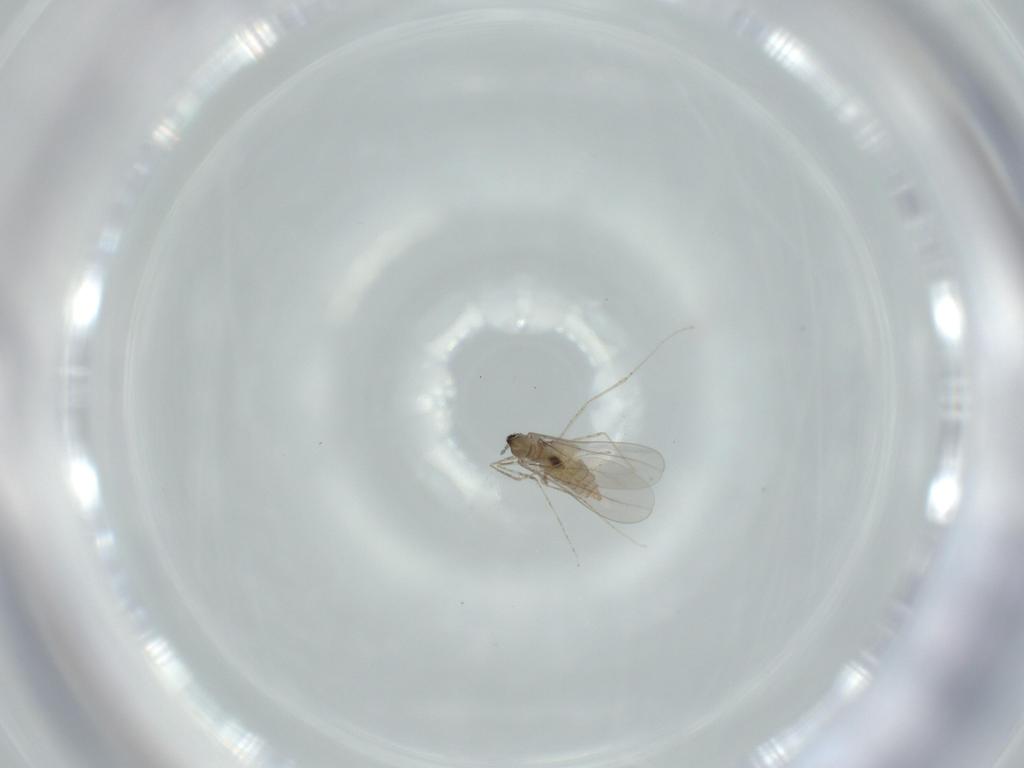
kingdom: Animalia
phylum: Arthropoda
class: Insecta
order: Diptera
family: Cecidomyiidae
